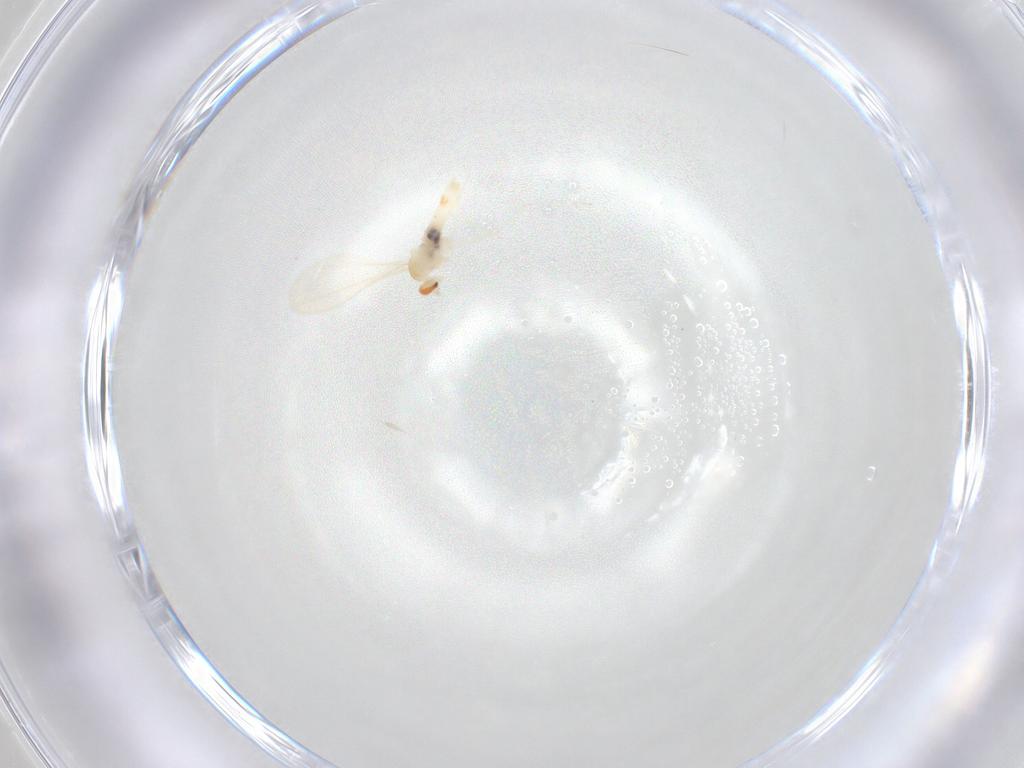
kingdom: Animalia
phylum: Arthropoda
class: Insecta
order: Diptera
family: Cecidomyiidae
